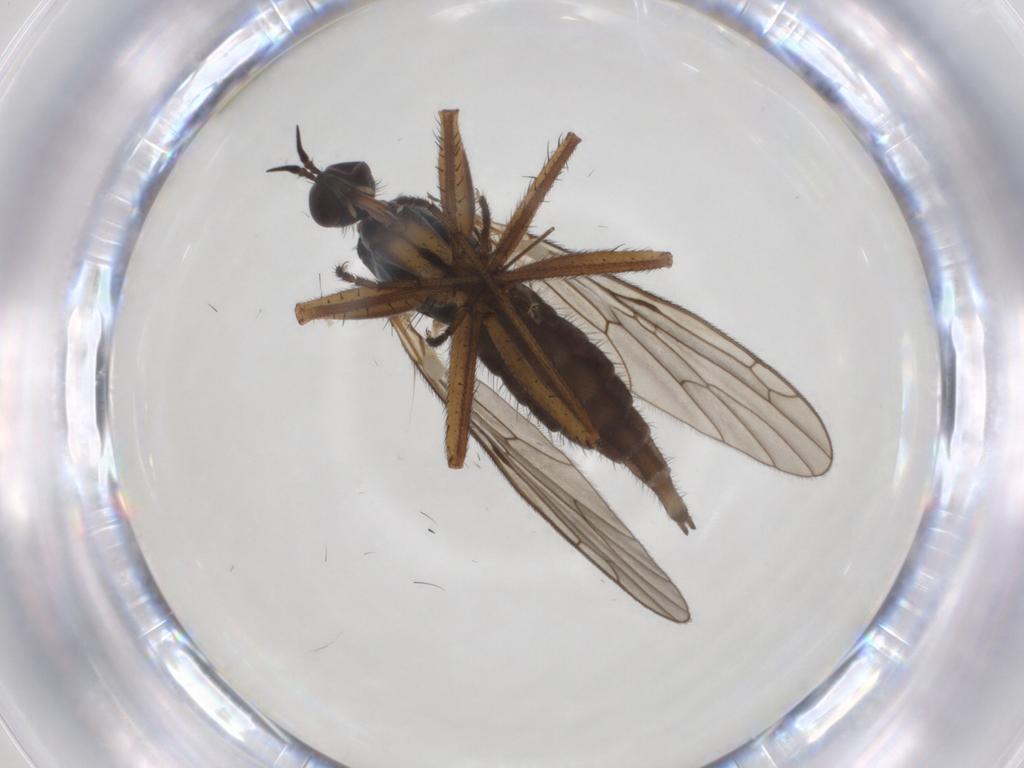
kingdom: Animalia
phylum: Arthropoda
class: Insecta
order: Diptera
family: Chironomidae
